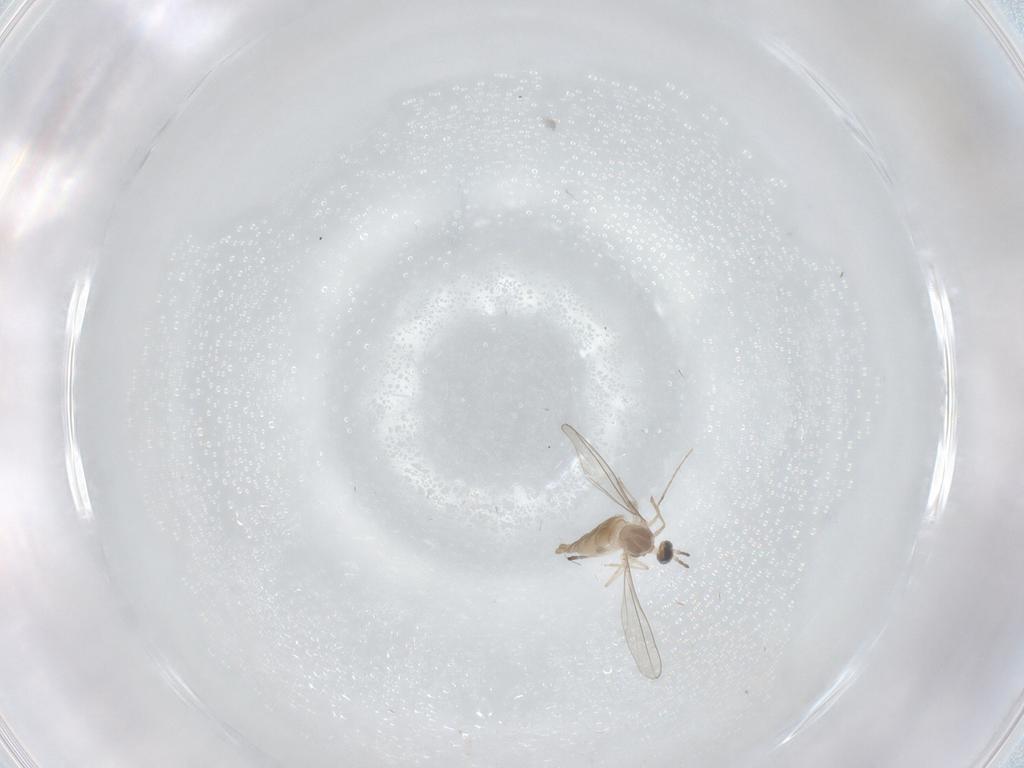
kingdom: Animalia
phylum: Arthropoda
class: Insecta
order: Diptera
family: Cecidomyiidae
